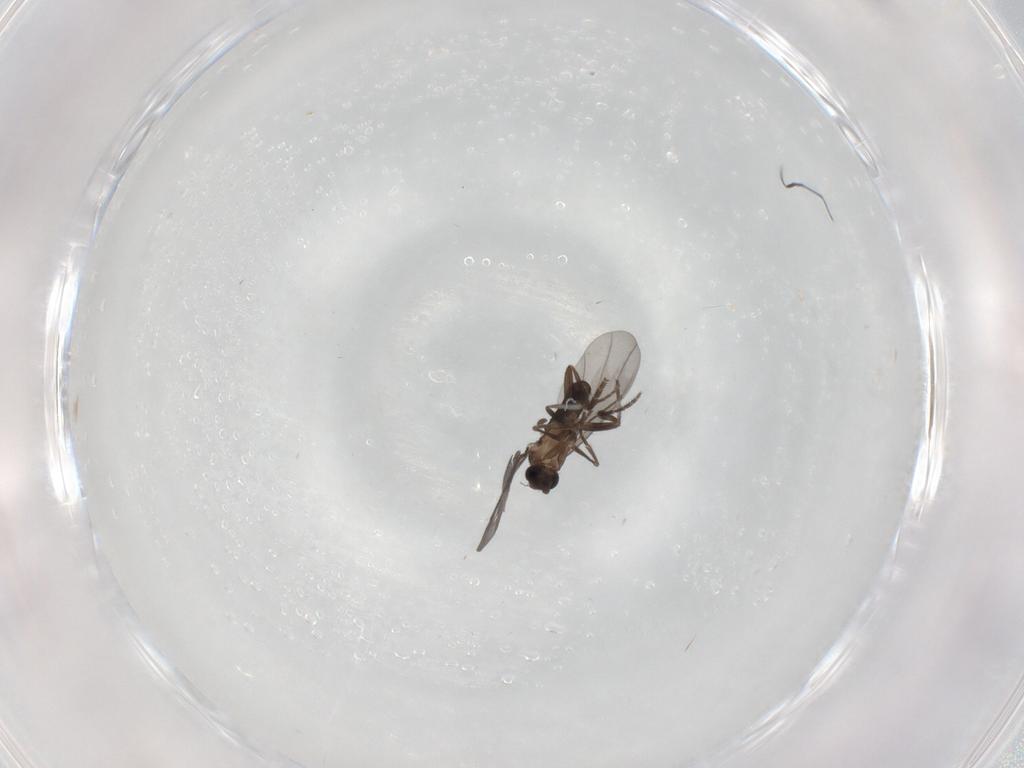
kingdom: Animalia
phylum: Arthropoda
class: Insecta
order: Diptera
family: Phoridae
